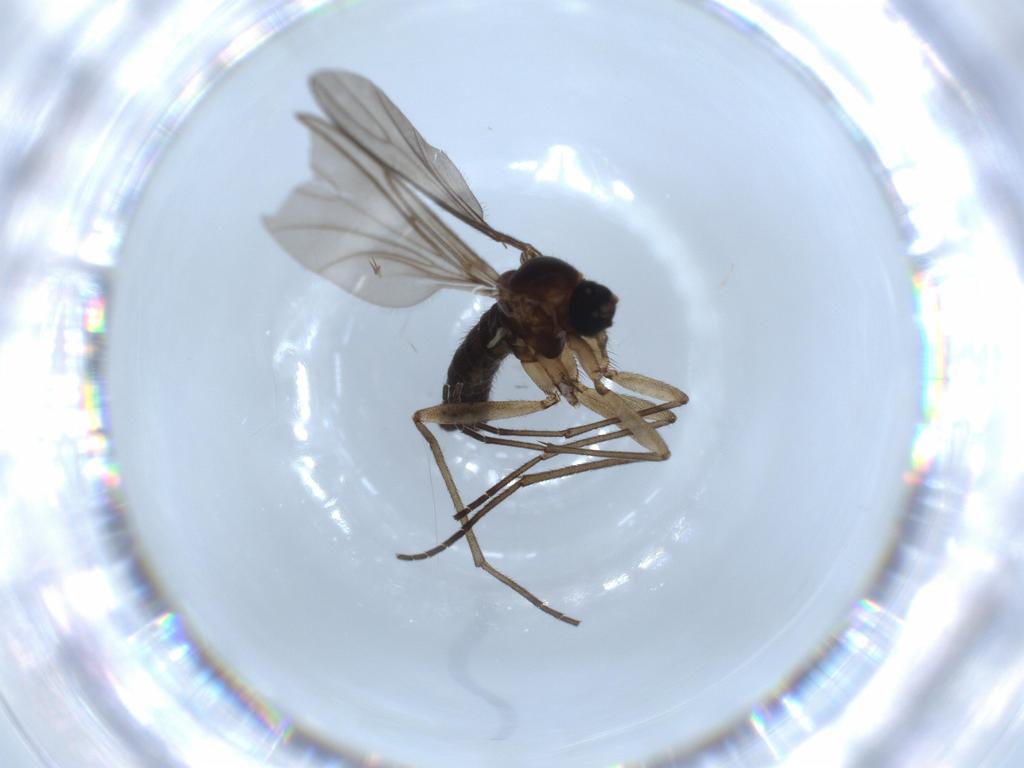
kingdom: Animalia
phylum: Arthropoda
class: Insecta
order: Diptera
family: Sciaridae
